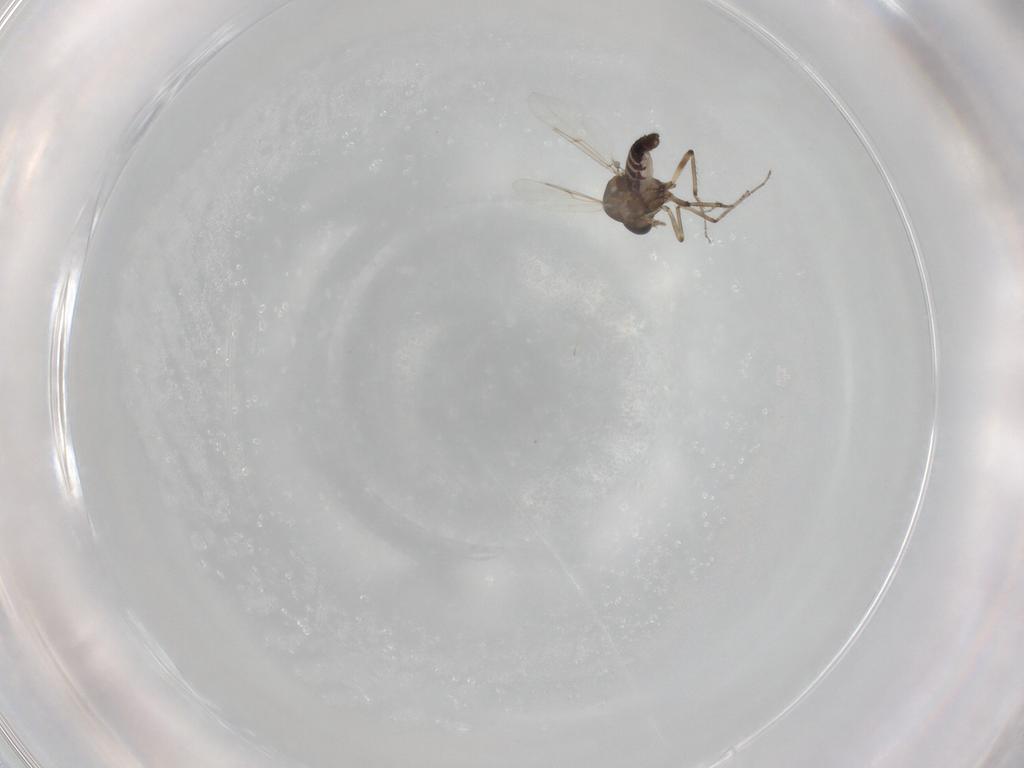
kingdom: Animalia
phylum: Arthropoda
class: Insecta
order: Diptera
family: Ceratopogonidae
